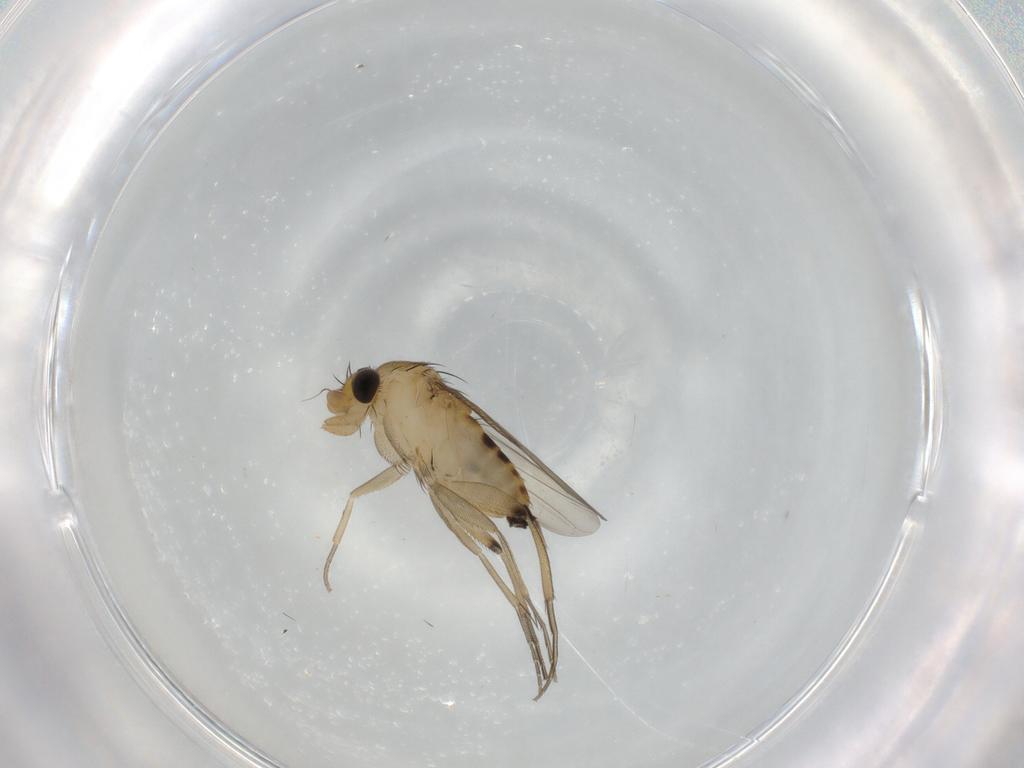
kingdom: Animalia
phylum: Arthropoda
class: Insecta
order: Diptera
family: Phoridae
